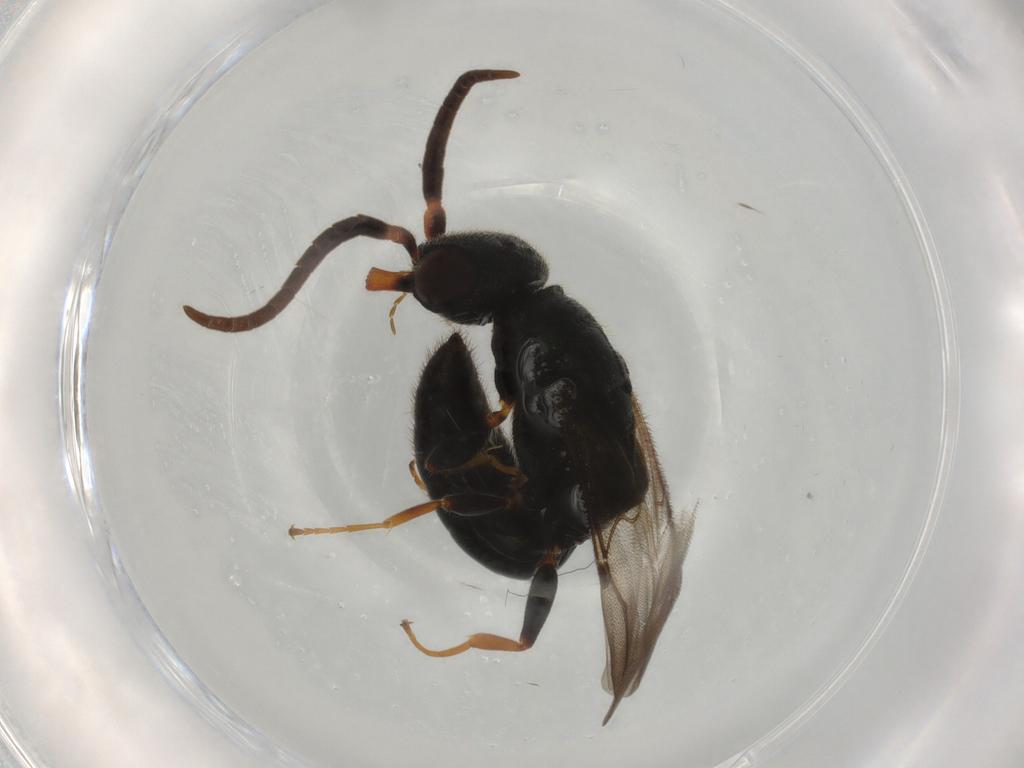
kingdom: Animalia
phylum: Arthropoda
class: Insecta
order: Hymenoptera
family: Bethylidae
